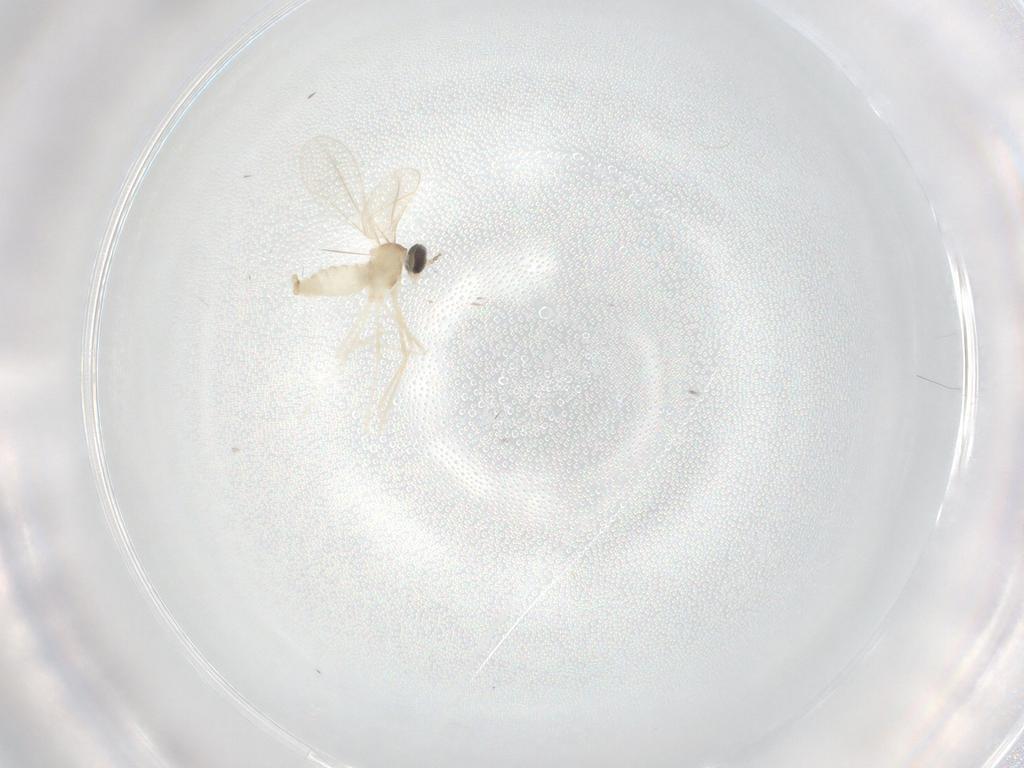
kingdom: Animalia
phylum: Arthropoda
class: Insecta
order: Diptera
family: Cecidomyiidae
